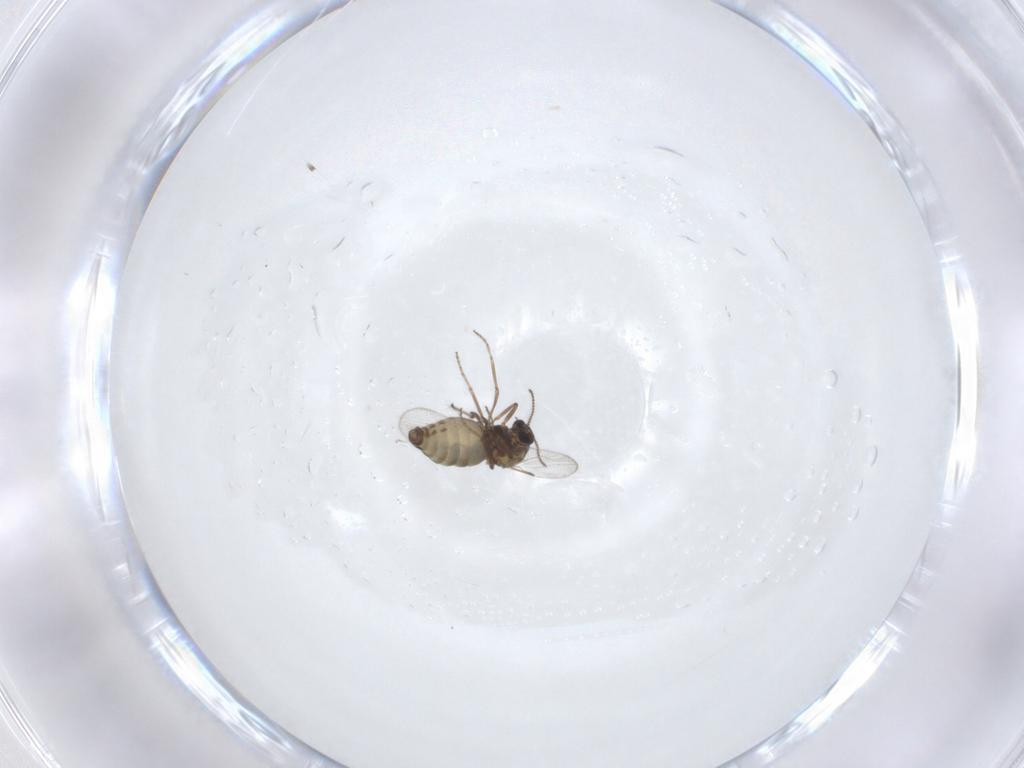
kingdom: Animalia
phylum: Arthropoda
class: Insecta
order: Diptera
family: Ceratopogonidae
